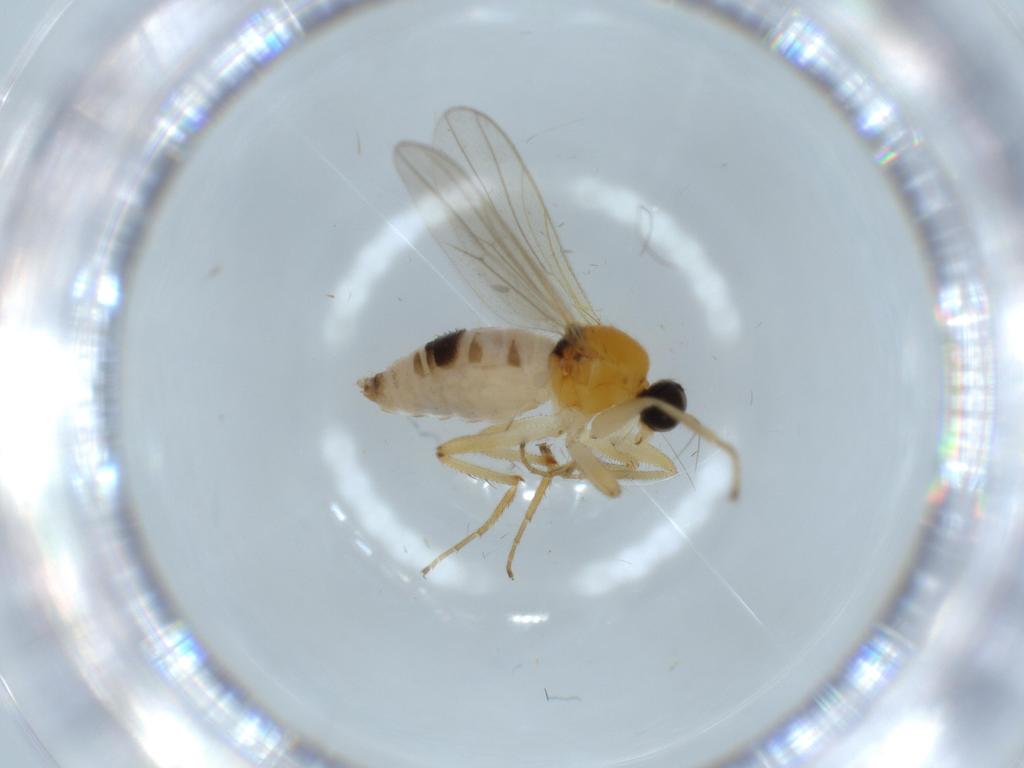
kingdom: Animalia
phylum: Arthropoda
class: Insecta
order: Diptera
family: Hybotidae
